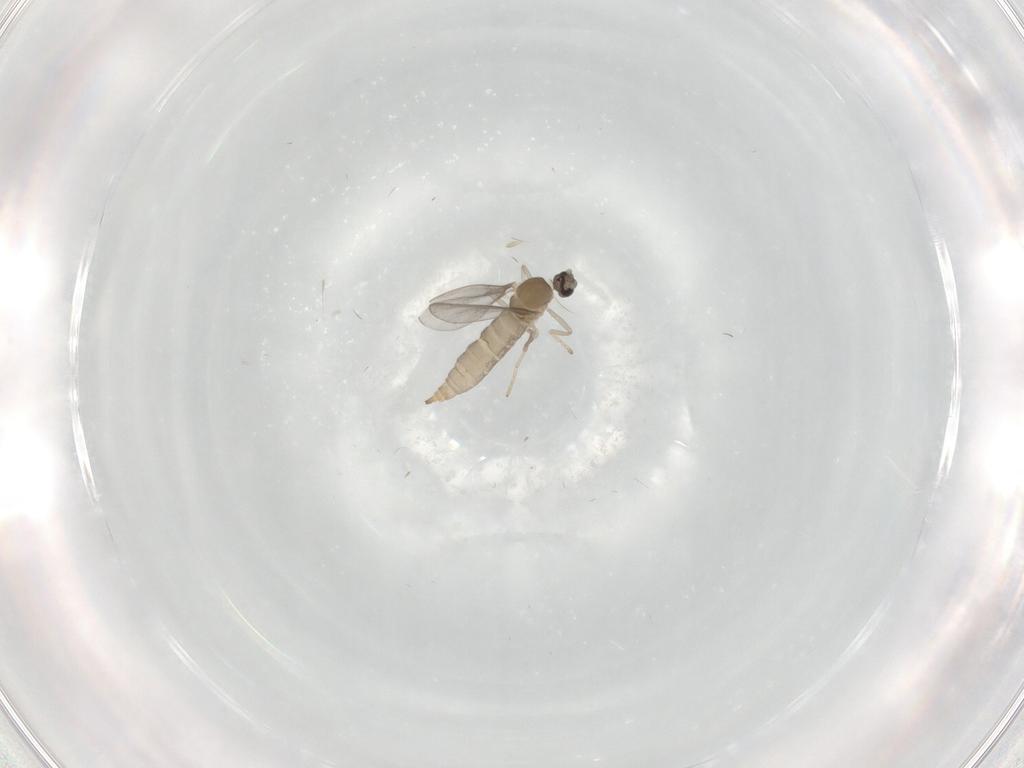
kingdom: Animalia
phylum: Arthropoda
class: Insecta
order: Diptera
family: Cecidomyiidae
